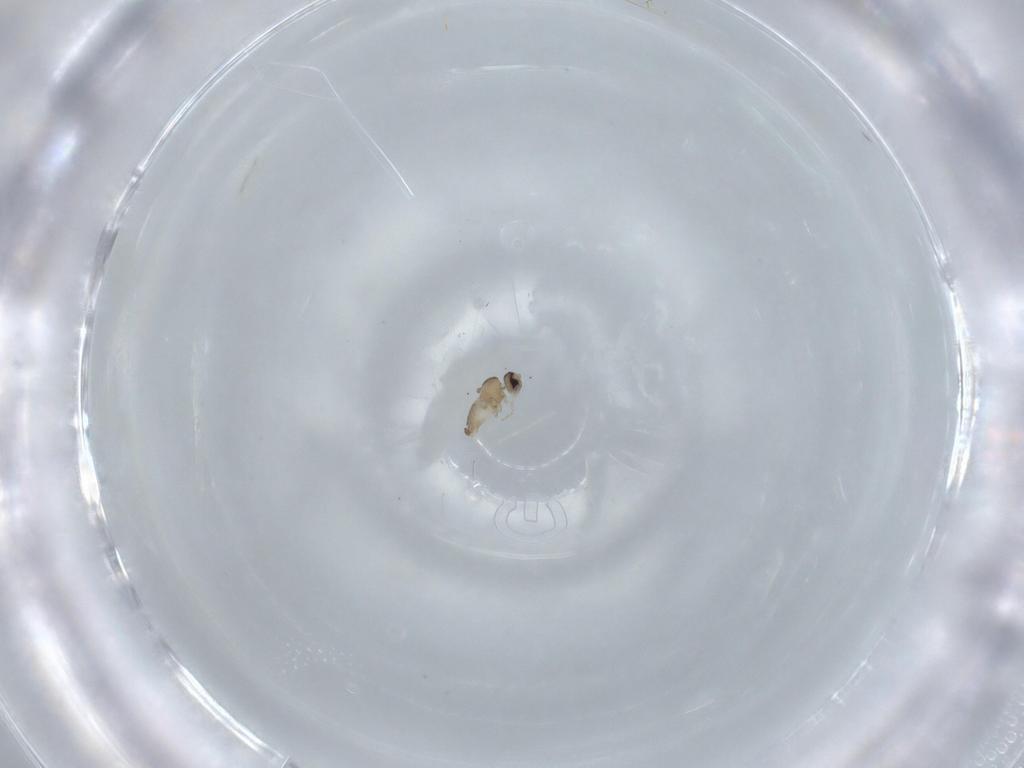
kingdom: Animalia
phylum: Arthropoda
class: Insecta
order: Diptera
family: Cecidomyiidae
